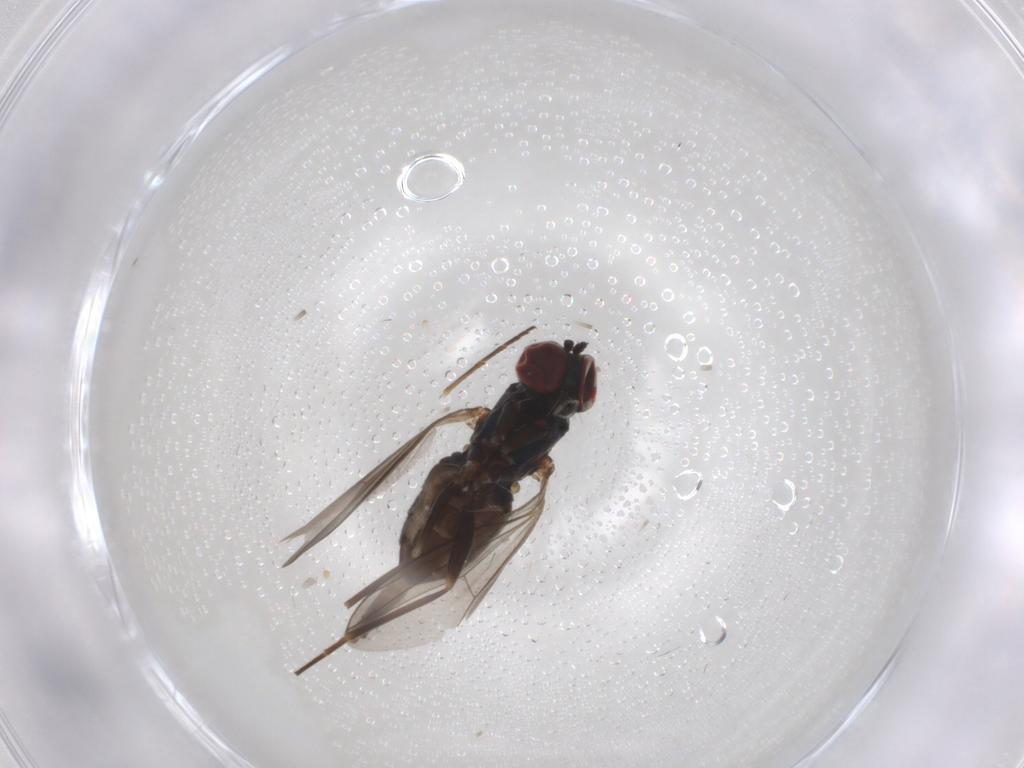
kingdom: Animalia
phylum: Arthropoda
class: Insecta
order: Diptera
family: Dolichopodidae
